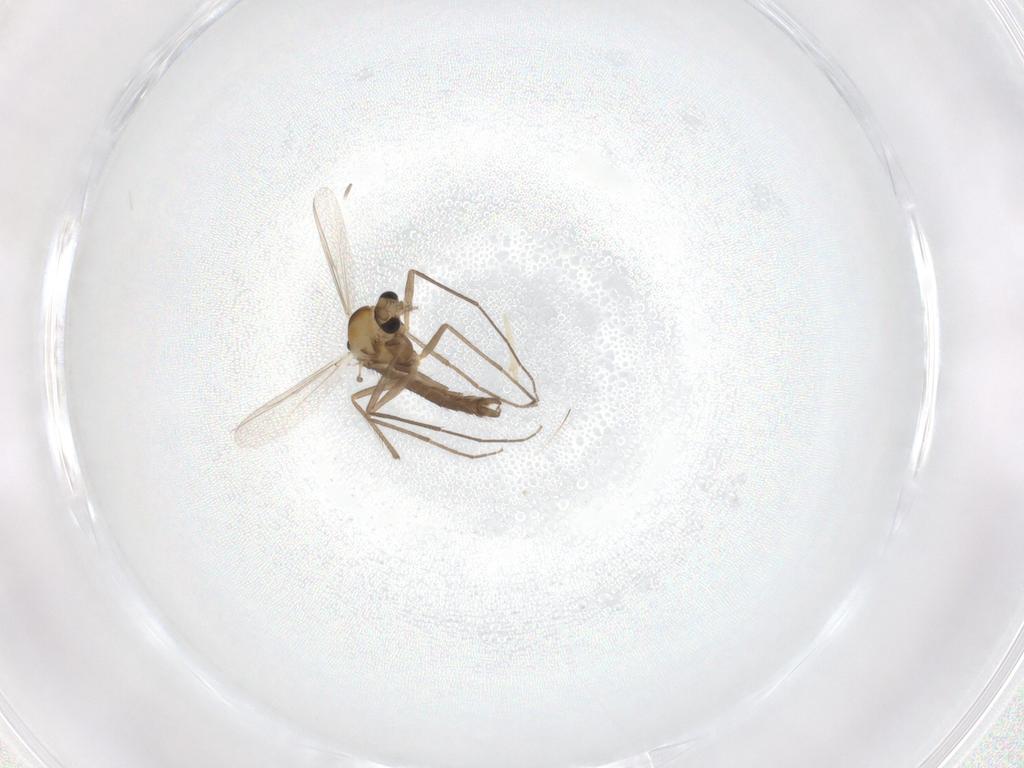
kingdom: Animalia
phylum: Arthropoda
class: Insecta
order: Diptera
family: Chironomidae
